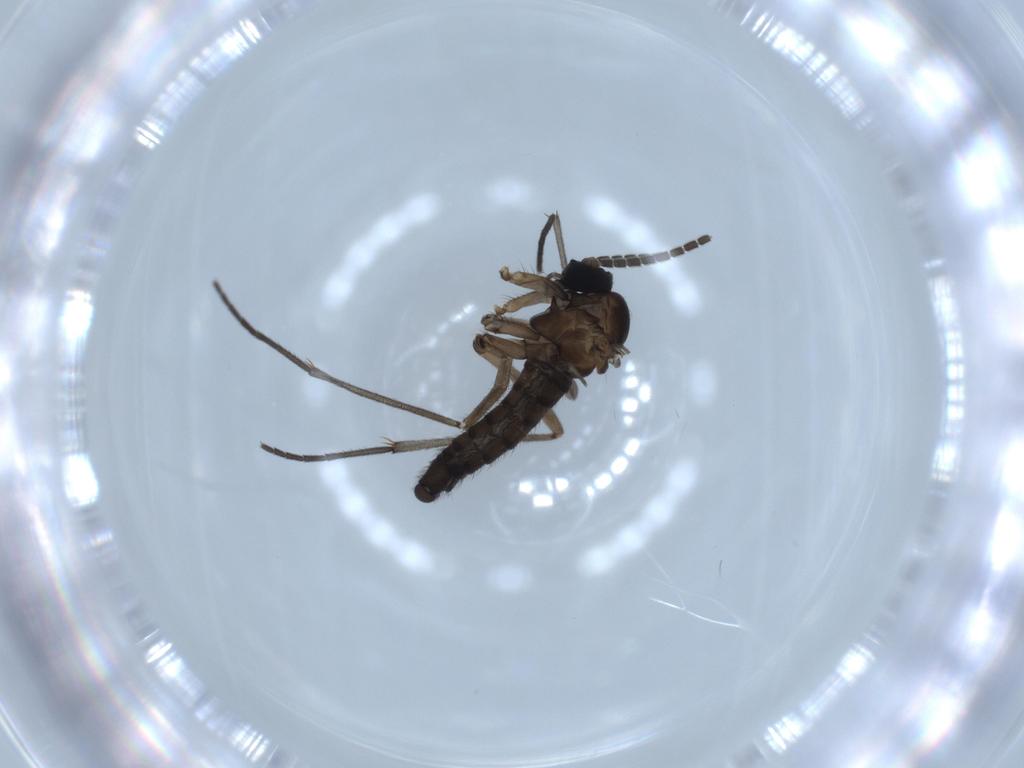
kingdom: Animalia
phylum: Arthropoda
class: Insecta
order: Diptera
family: Sciaridae
